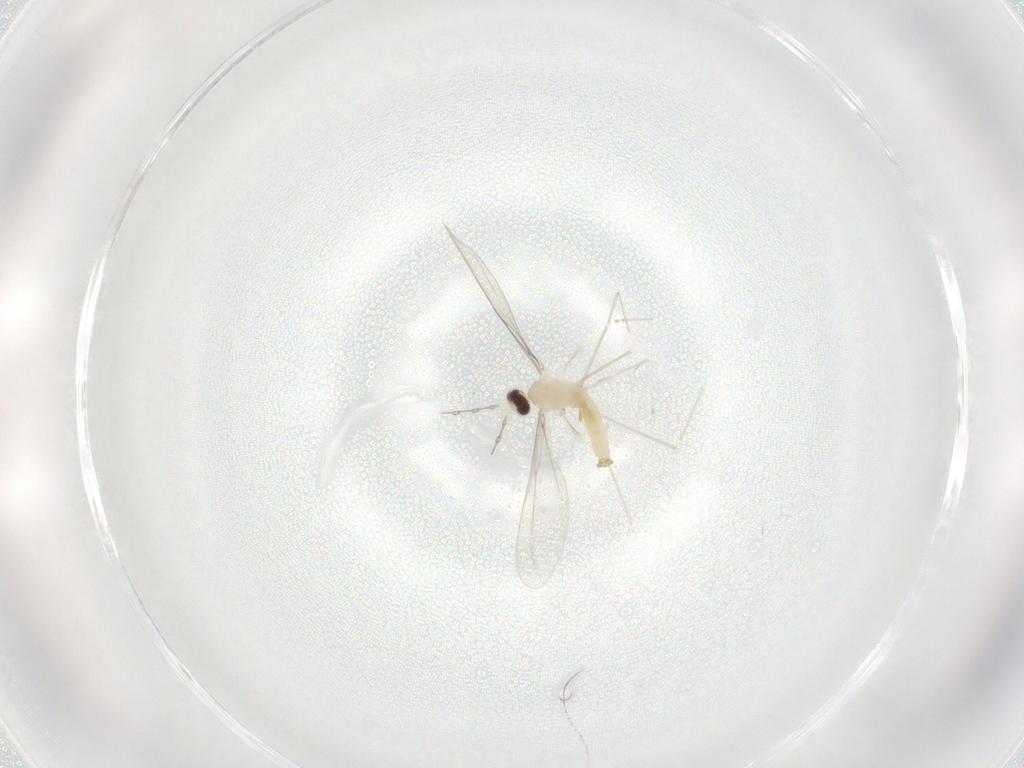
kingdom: Animalia
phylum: Arthropoda
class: Insecta
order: Diptera
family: Cecidomyiidae
